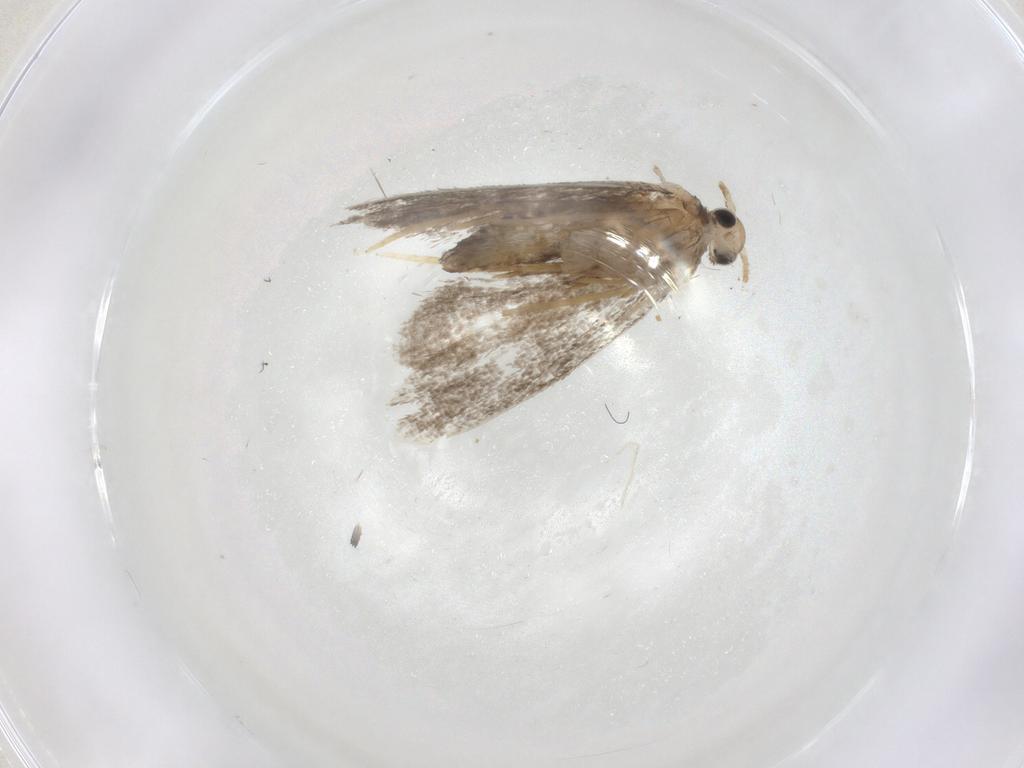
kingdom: Animalia
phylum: Arthropoda
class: Insecta
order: Lepidoptera
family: Psychidae
